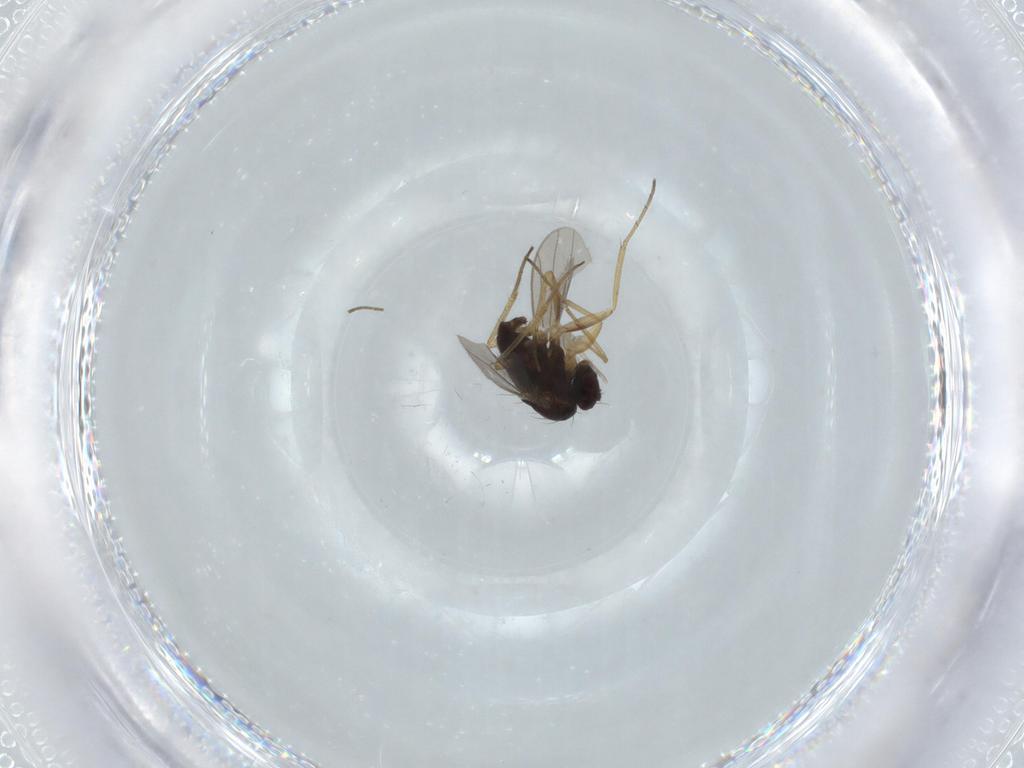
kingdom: Animalia
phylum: Arthropoda
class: Insecta
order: Diptera
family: Dolichopodidae
